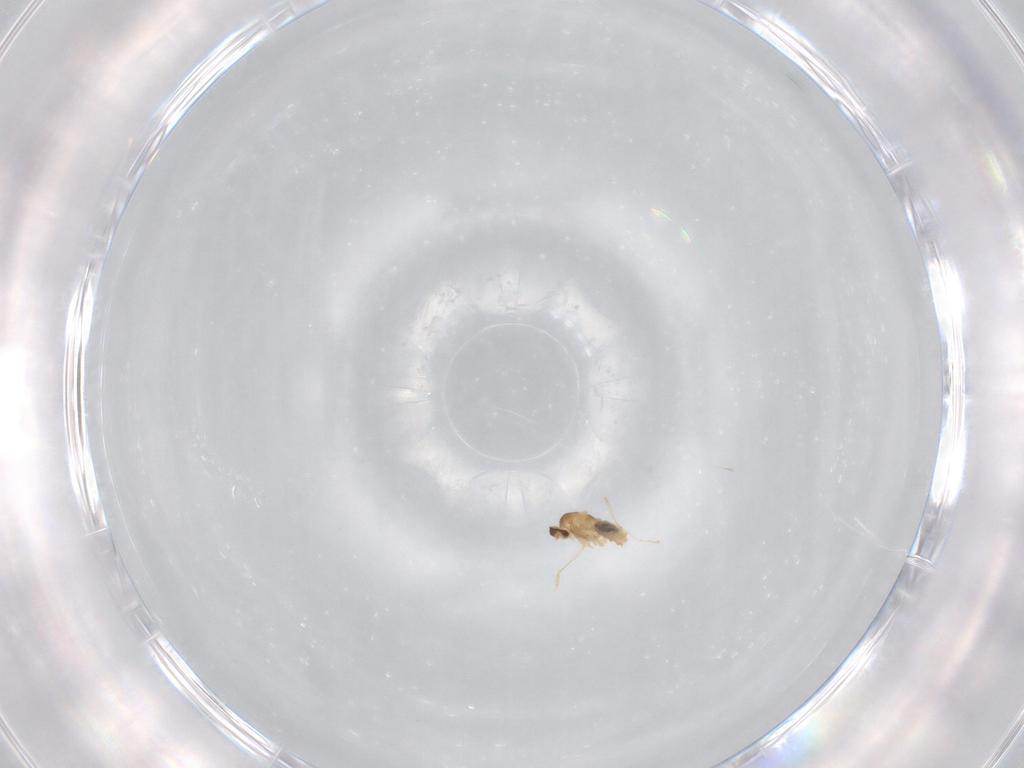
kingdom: Animalia
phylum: Arthropoda
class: Insecta
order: Diptera
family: Cecidomyiidae
